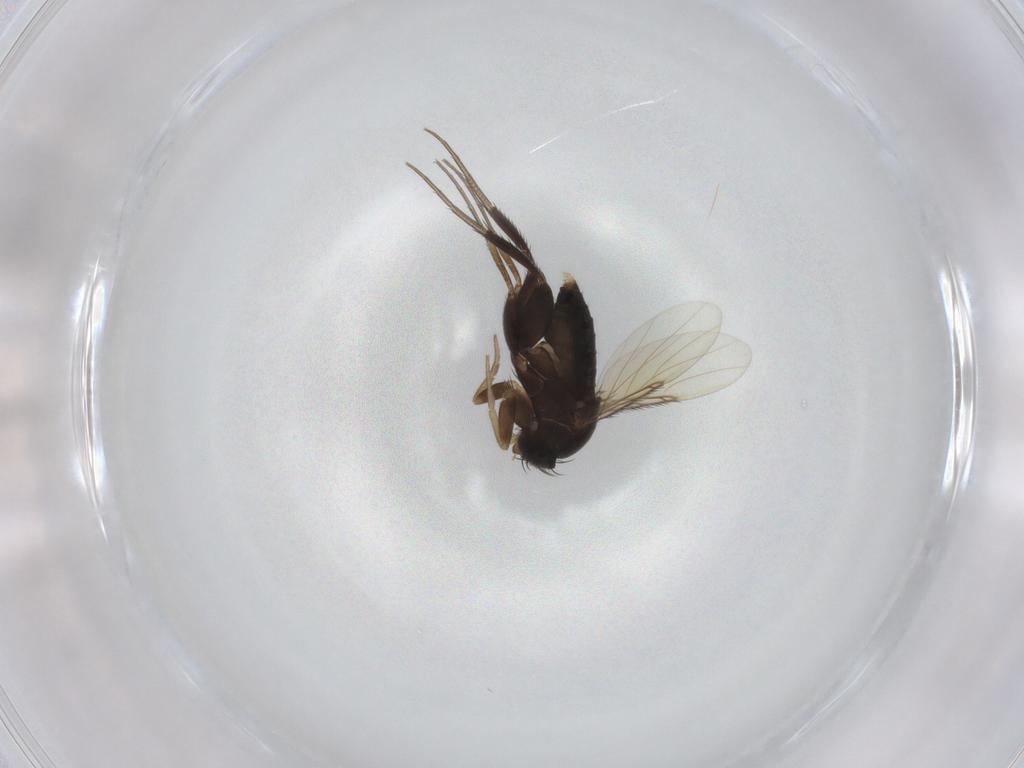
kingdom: Animalia
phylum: Arthropoda
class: Insecta
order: Diptera
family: Phoridae
